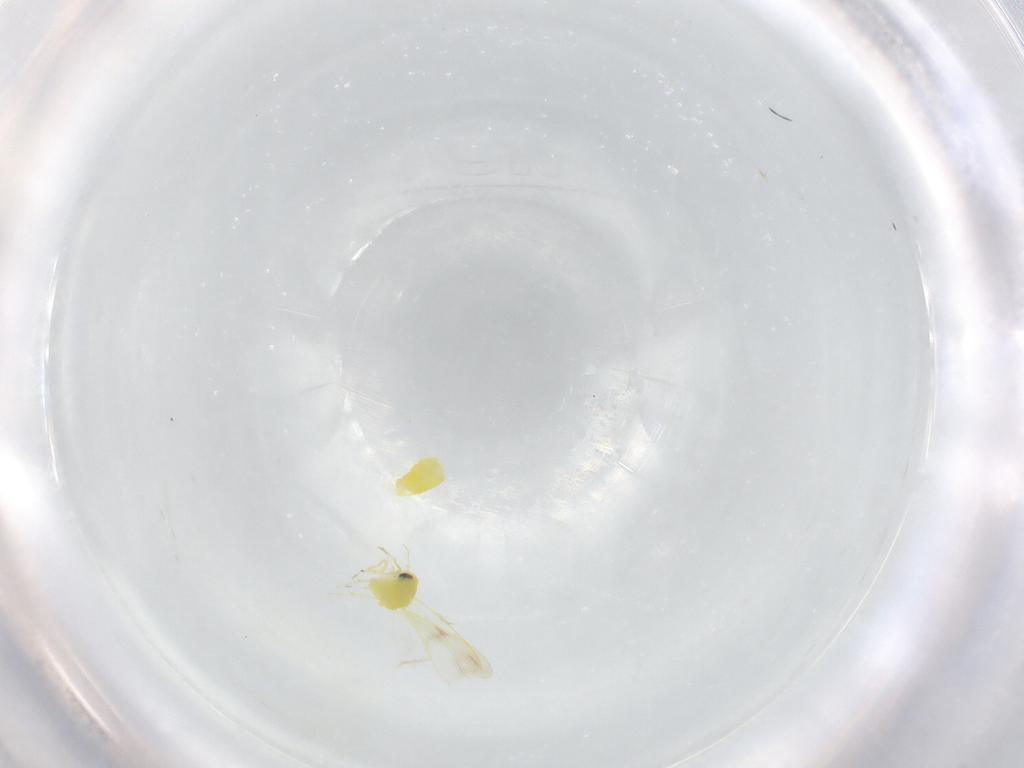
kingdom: Animalia
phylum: Arthropoda
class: Insecta
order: Hemiptera
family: Aleyrodidae
